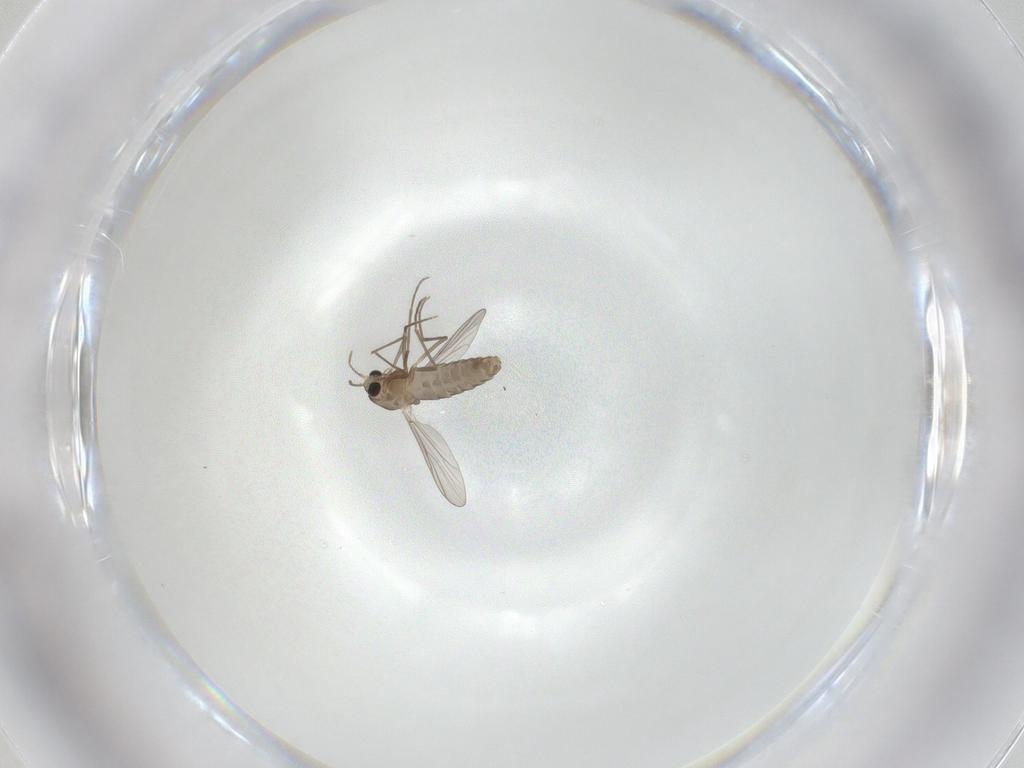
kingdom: Animalia
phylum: Arthropoda
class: Insecta
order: Diptera
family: Chironomidae
